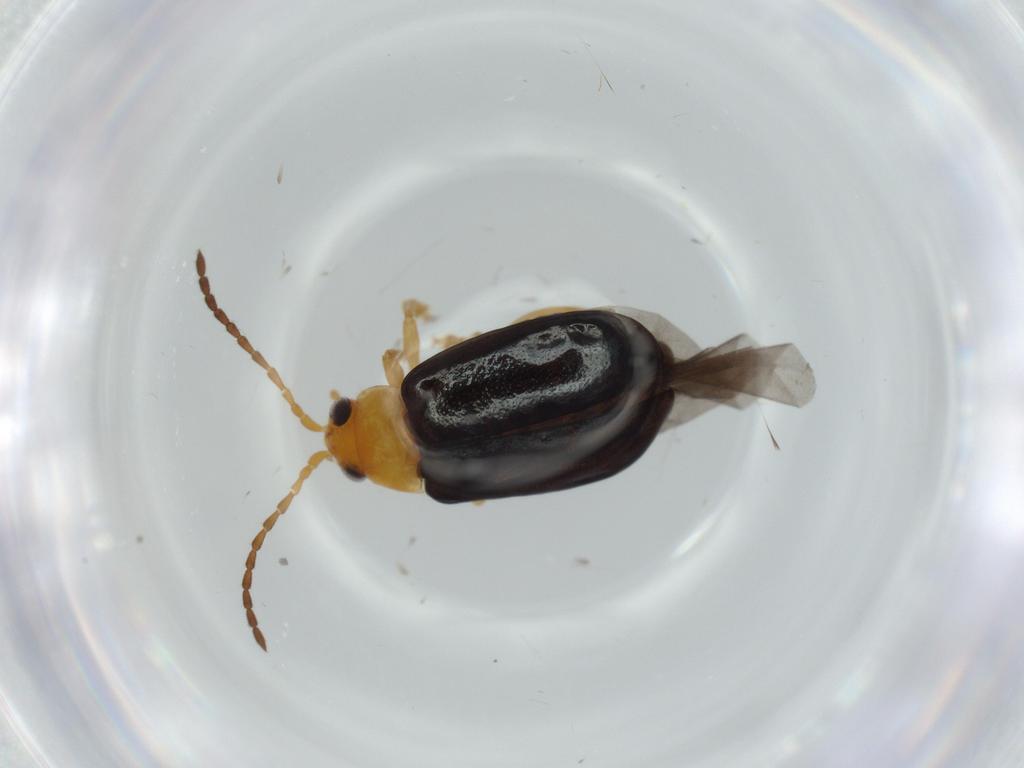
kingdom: Animalia
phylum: Arthropoda
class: Insecta
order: Coleoptera
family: Chrysomelidae
